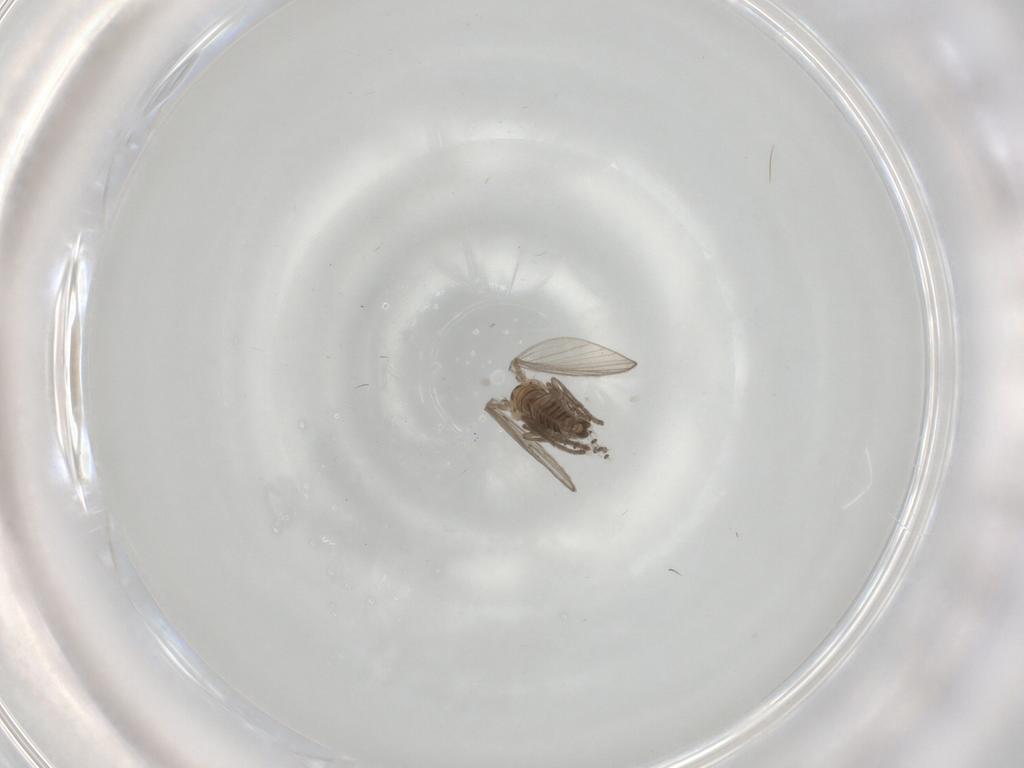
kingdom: Animalia
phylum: Arthropoda
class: Insecta
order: Diptera
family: Psychodidae
